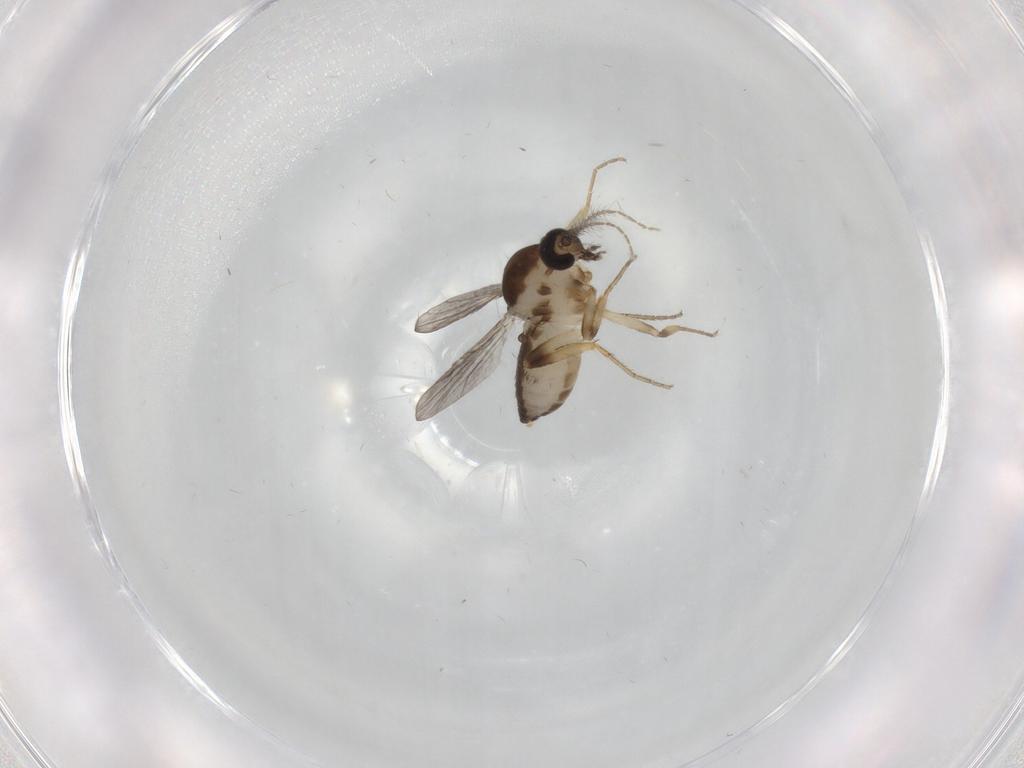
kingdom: Animalia
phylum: Arthropoda
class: Insecta
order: Diptera
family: Ceratopogonidae
